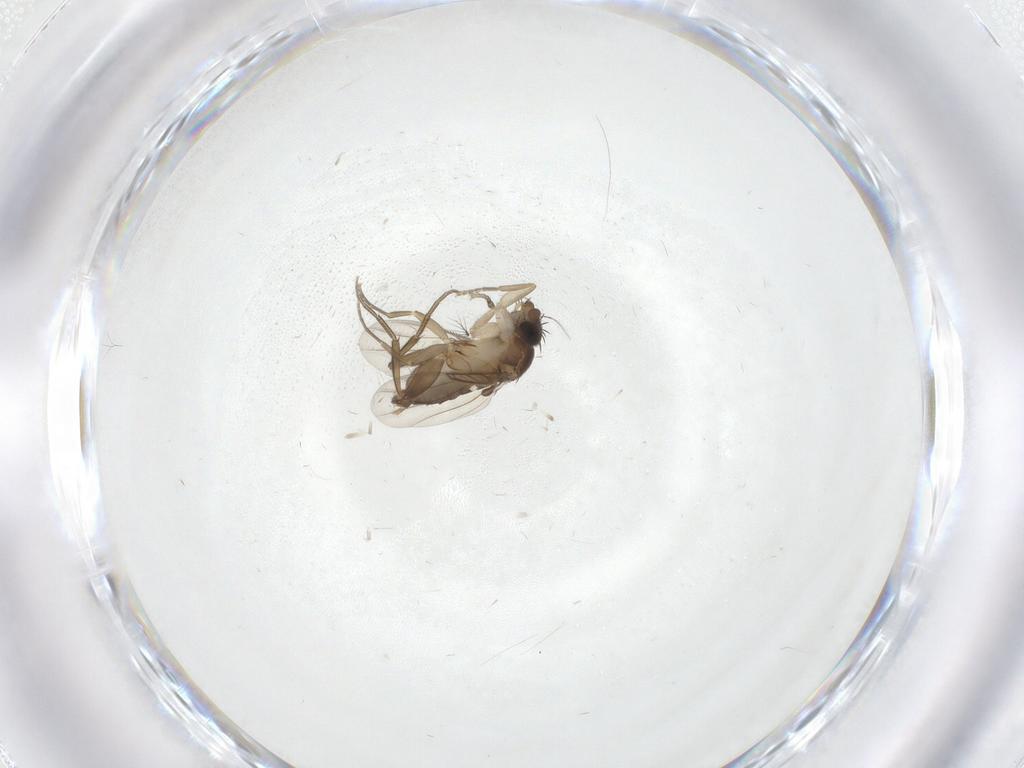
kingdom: Animalia
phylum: Arthropoda
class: Insecta
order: Diptera
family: Phoridae
